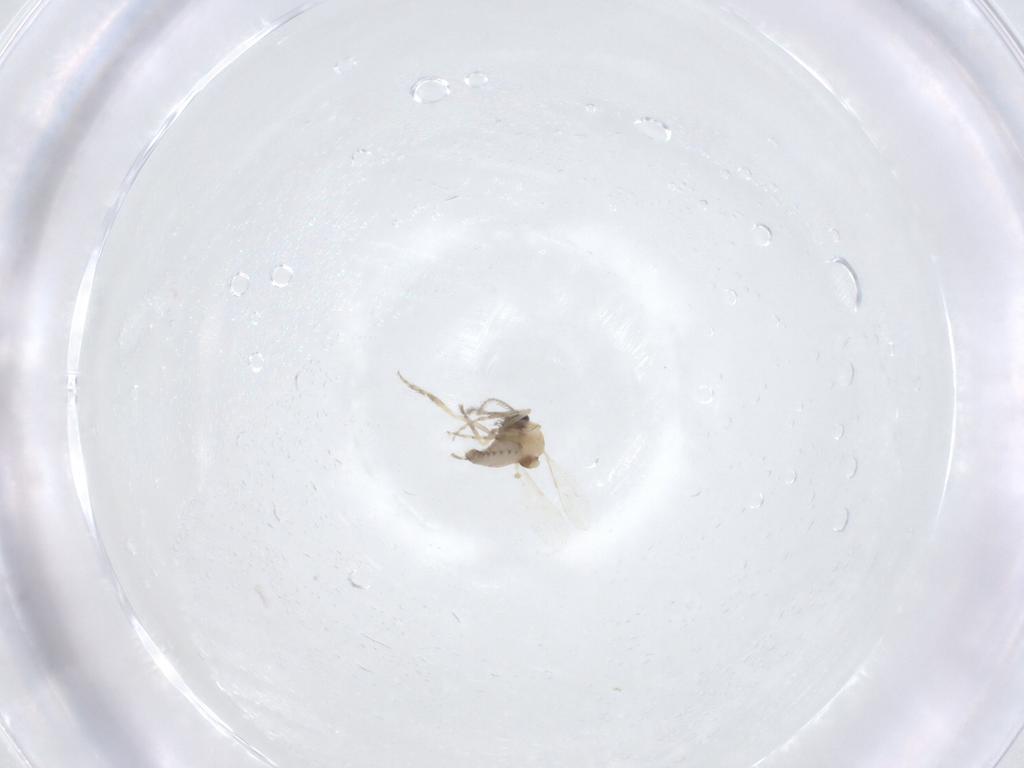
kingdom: Animalia
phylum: Arthropoda
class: Insecta
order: Diptera
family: Ceratopogonidae
